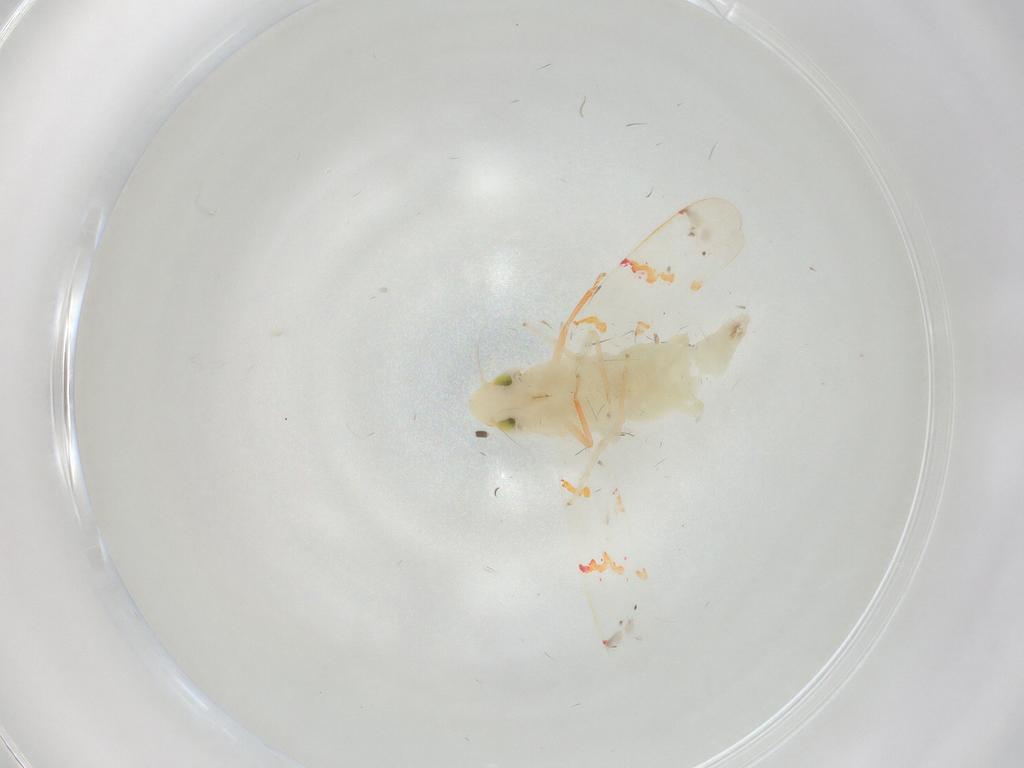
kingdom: Animalia
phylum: Arthropoda
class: Insecta
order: Hemiptera
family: Cicadellidae
